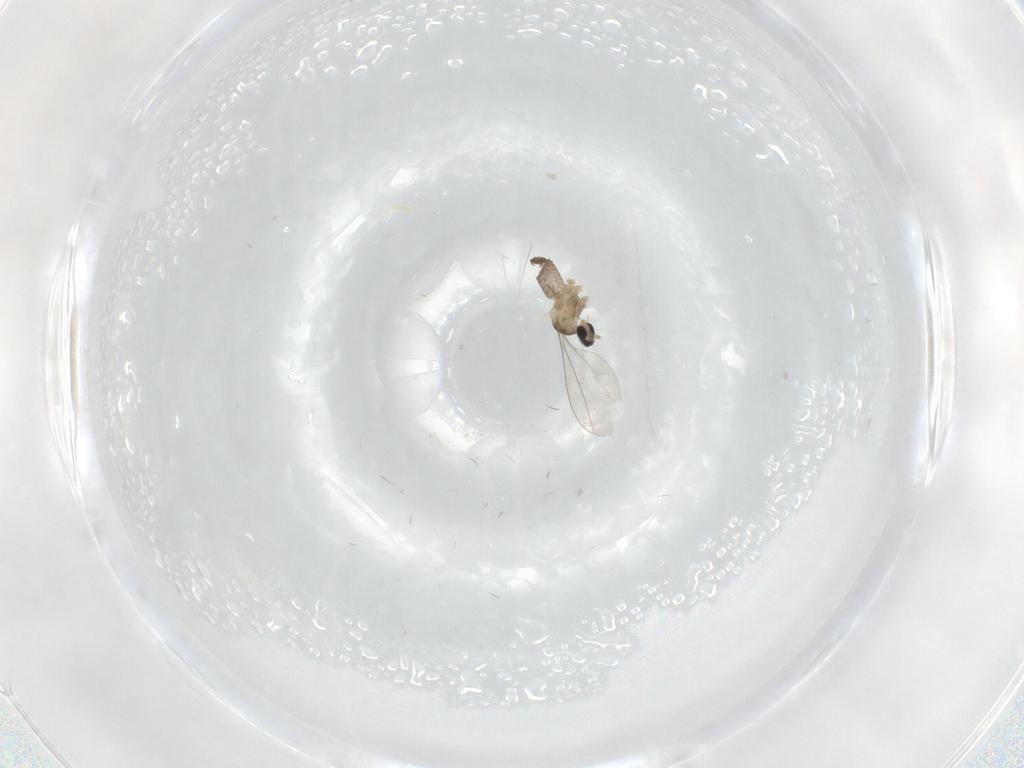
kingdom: Animalia
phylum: Arthropoda
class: Insecta
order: Diptera
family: Cecidomyiidae
